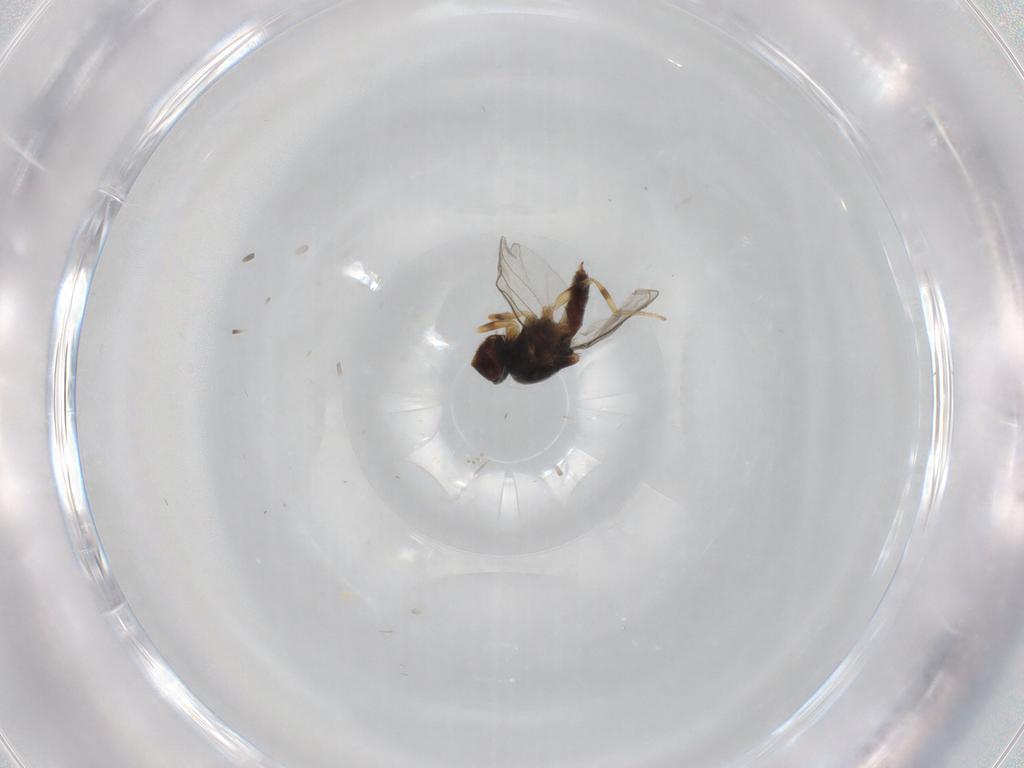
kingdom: Animalia
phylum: Arthropoda
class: Insecta
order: Diptera
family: Chloropidae
